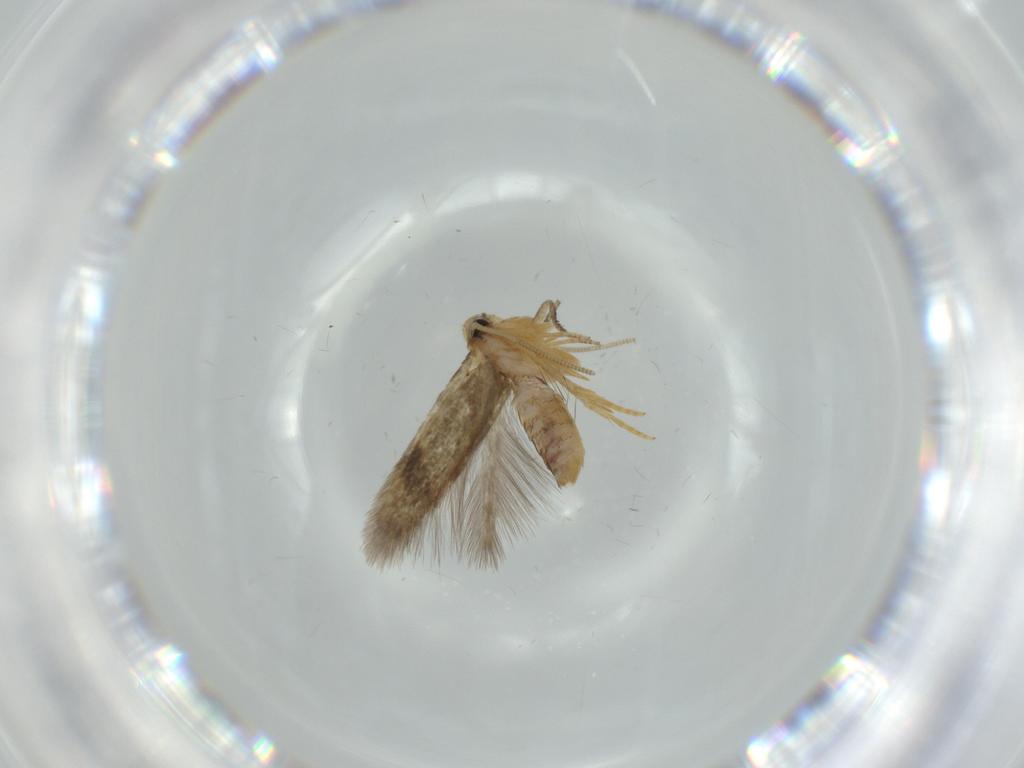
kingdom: Animalia
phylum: Arthropoda
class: Insecta
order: Lepidoptera
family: Nepticulidae
